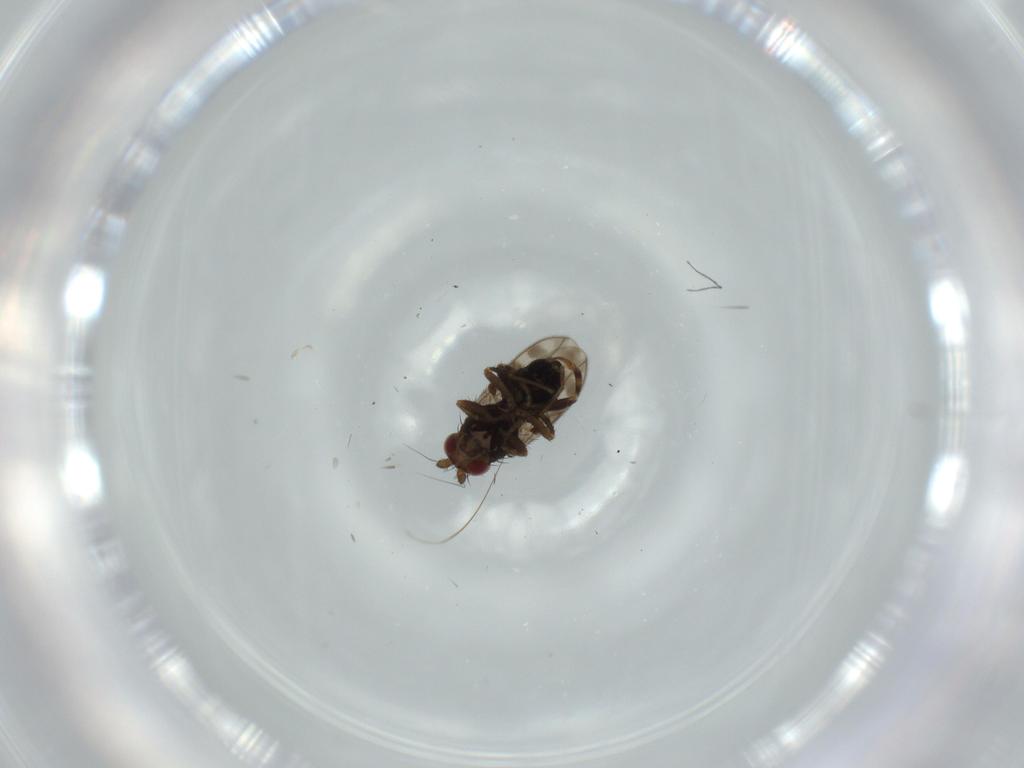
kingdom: Animalia
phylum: Arthropoda
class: Insecta
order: Diptera
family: Sphaeroceridae
